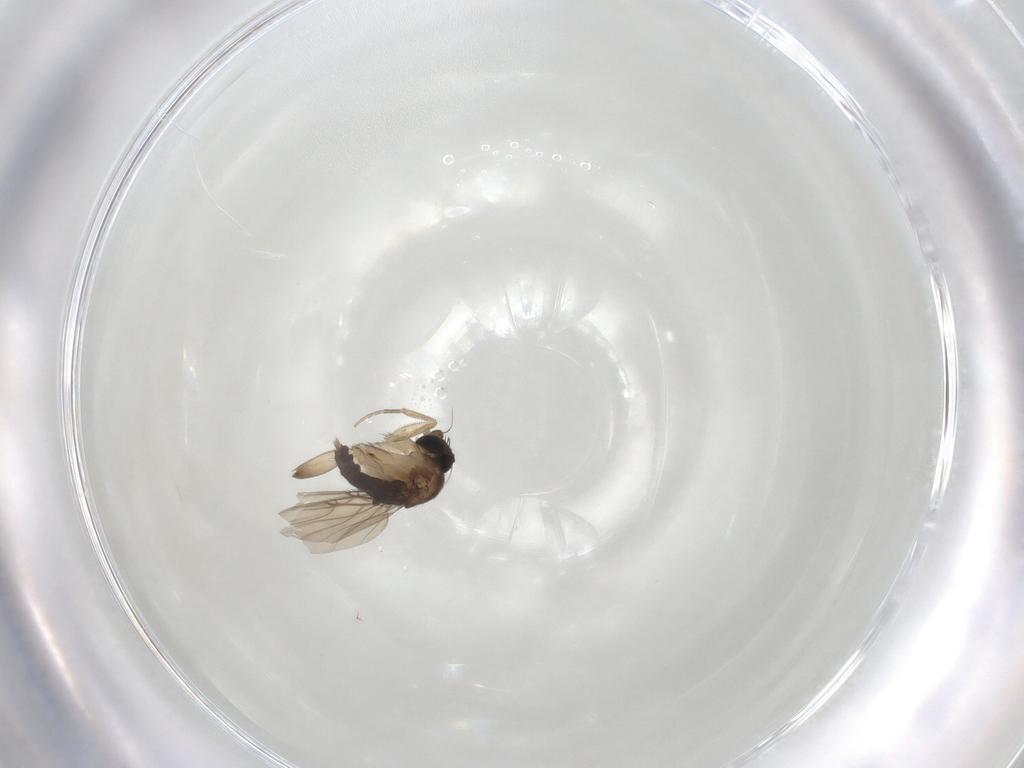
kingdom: Animalia
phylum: Arthropoda
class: Insecta
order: Diptera
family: Phoridae
